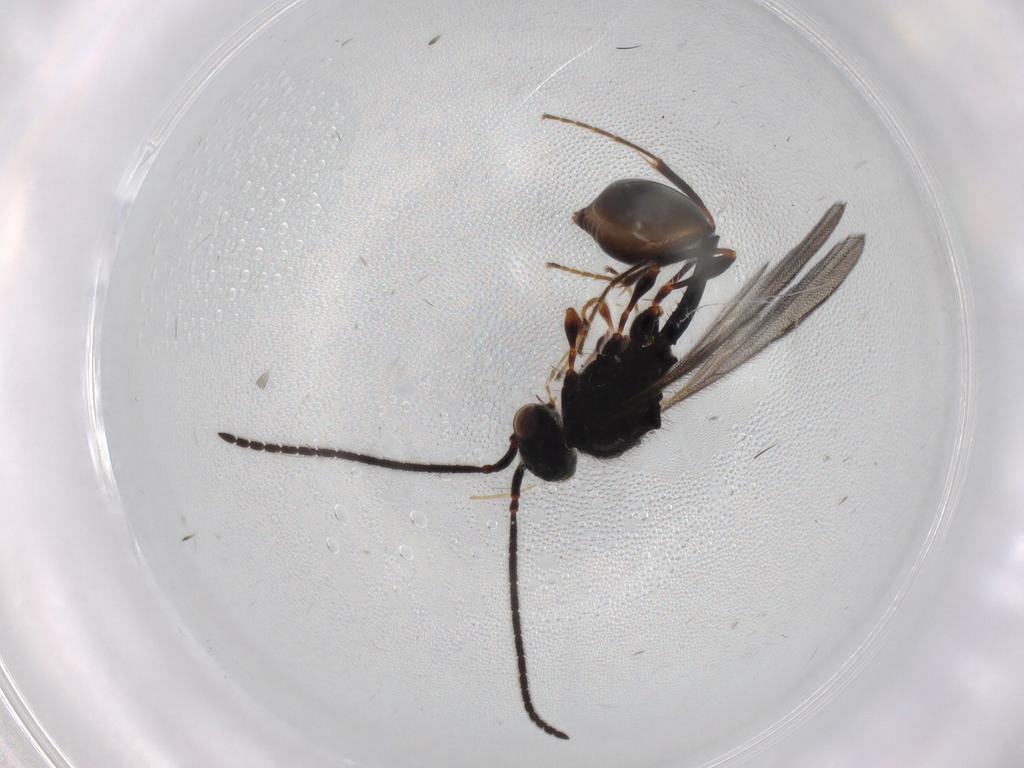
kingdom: Animalia
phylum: Arthropoda
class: Insecta
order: Hymenoptera
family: Diapriidae
